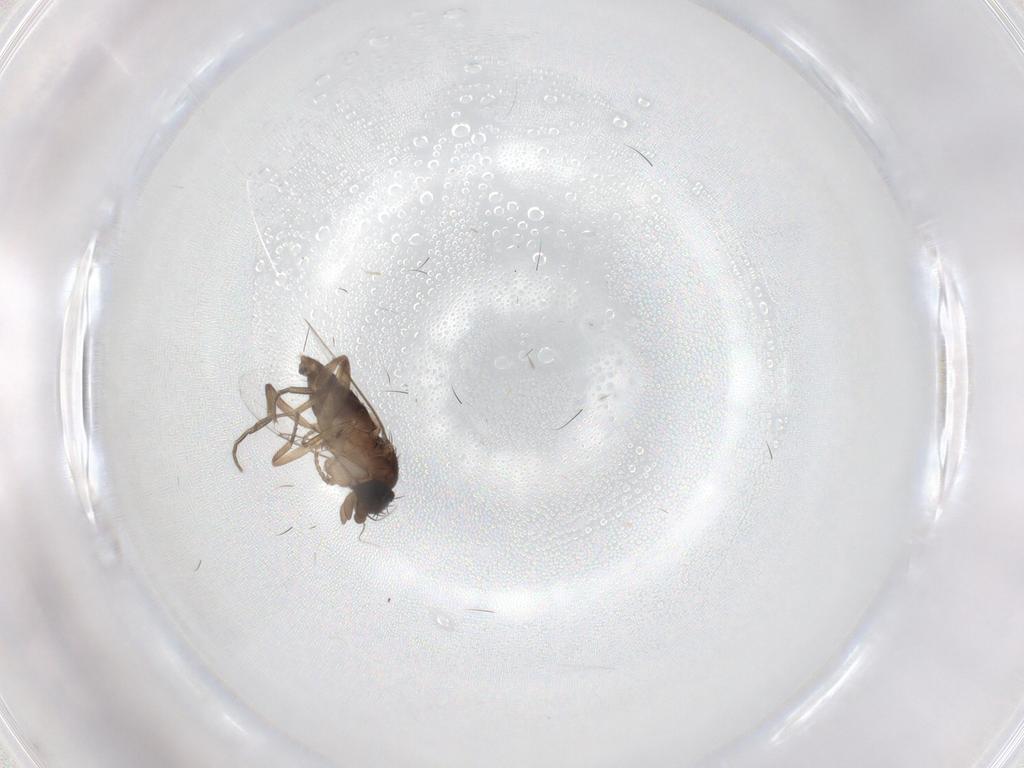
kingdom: Animalia
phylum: Arthropoda
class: Insecta
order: Diptera
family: Phoridae
